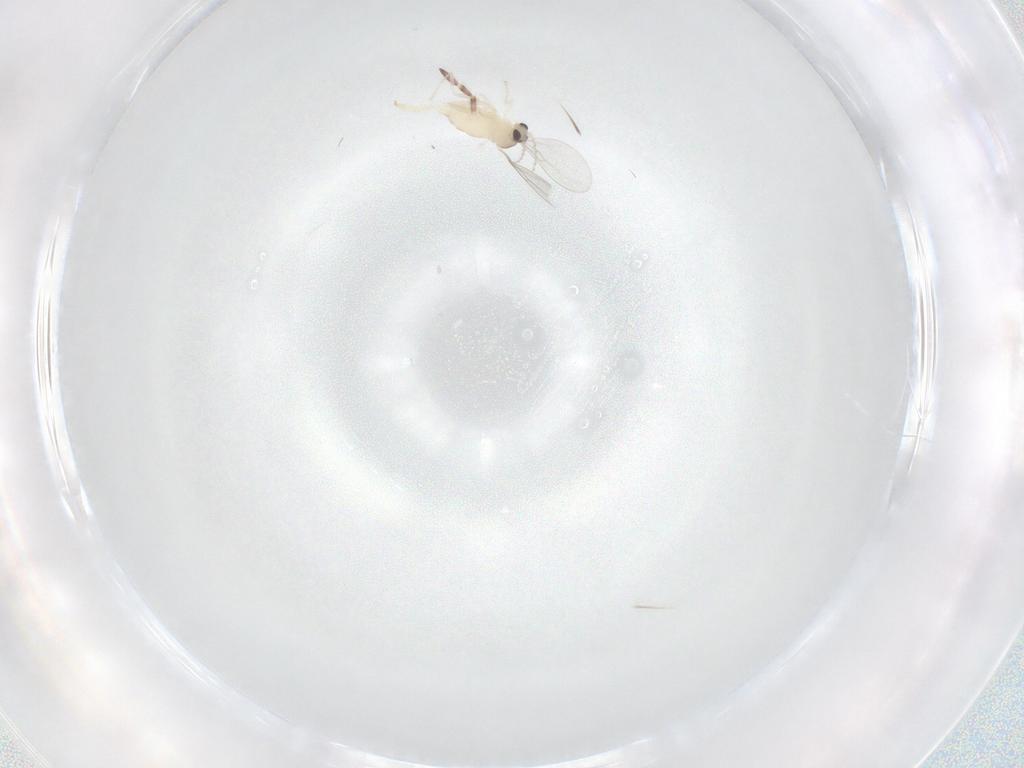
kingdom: Animalia
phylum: Arthropoda
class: Insecta
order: Diptera
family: Cecidomyiidae
